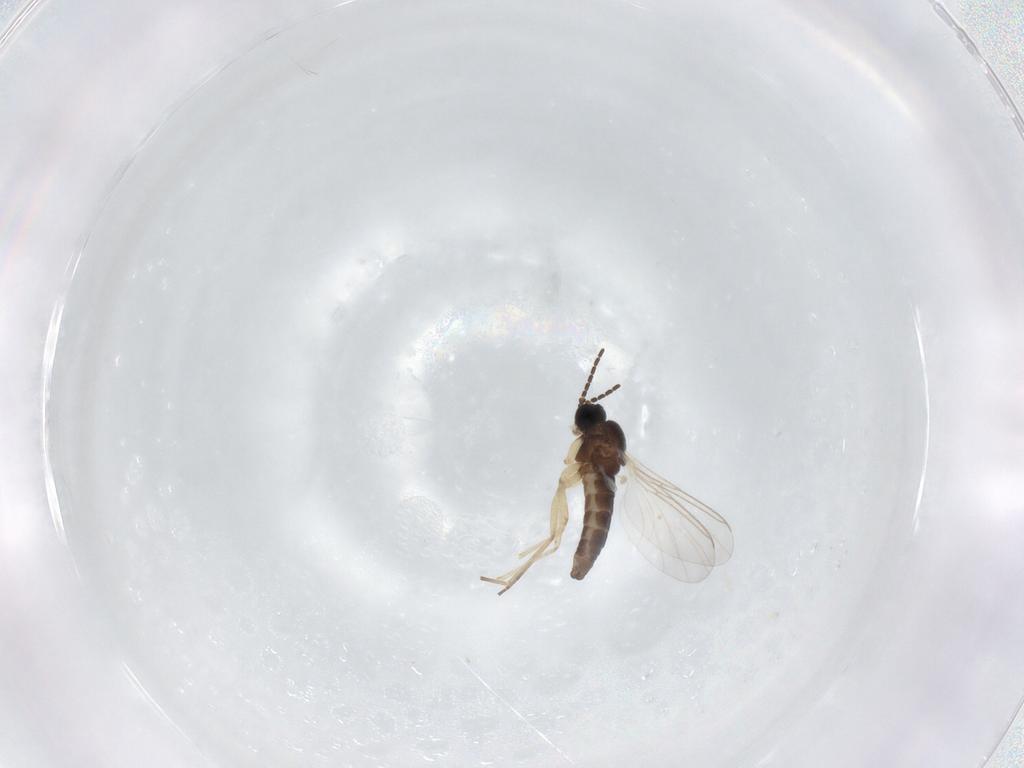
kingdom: Animalia
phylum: Arthropoda
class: Insecta
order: Diptera
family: Sciaridae
